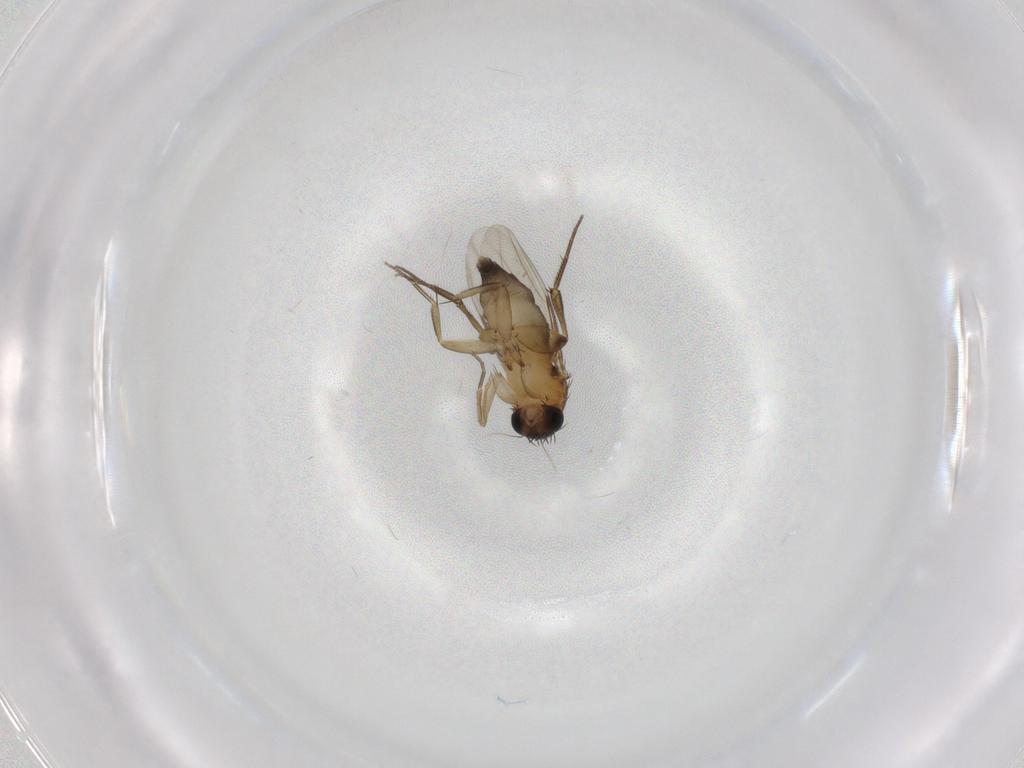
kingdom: Animalia
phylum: Arthropoda
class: Insecta
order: Diptera
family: Phoridae
